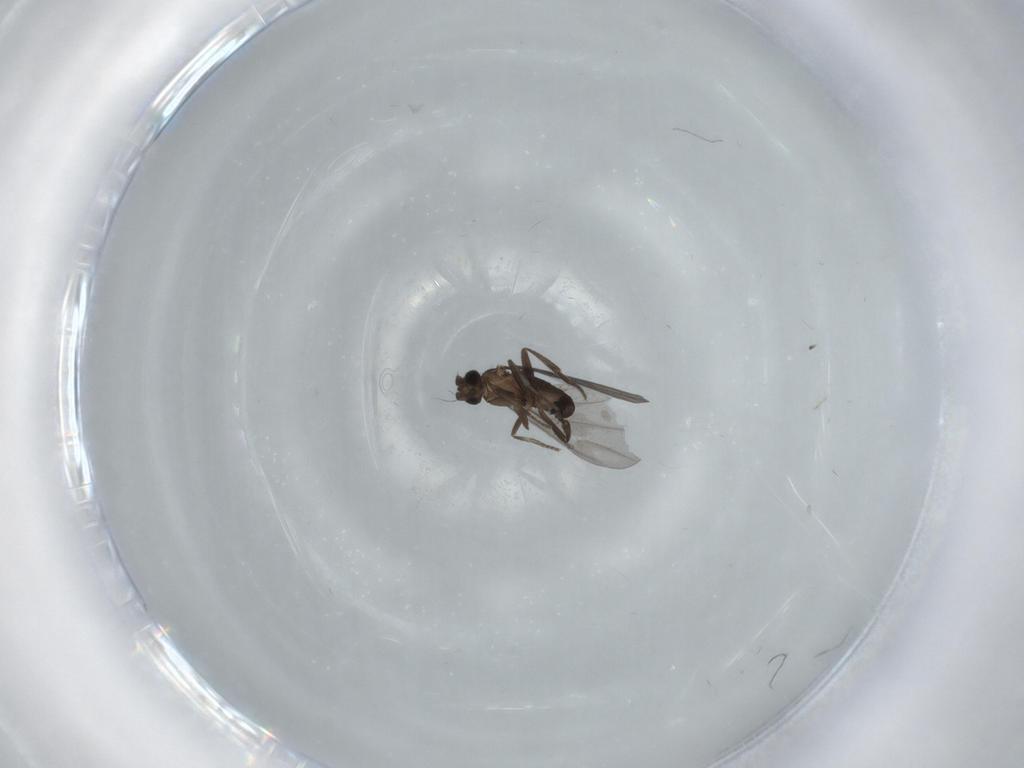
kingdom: Animalia
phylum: Arthropoda
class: Insecta
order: Diptera
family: Phoridae
